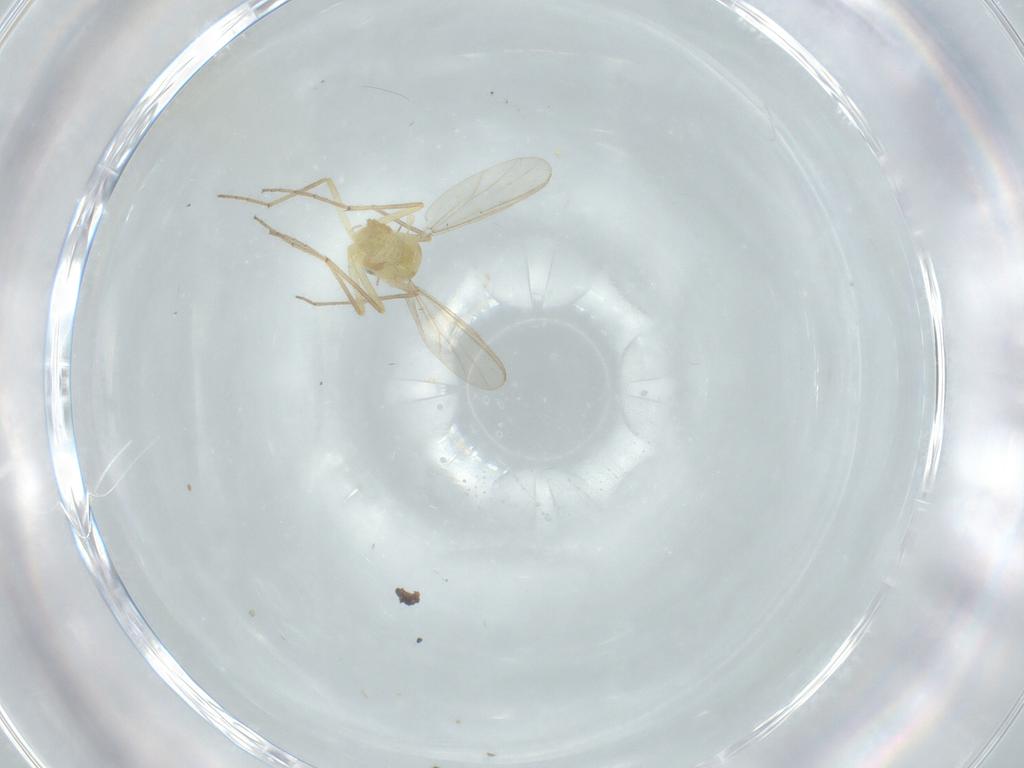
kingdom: Animalia
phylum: Arthropoda
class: Insecta
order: Diptera
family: Chironomidae
